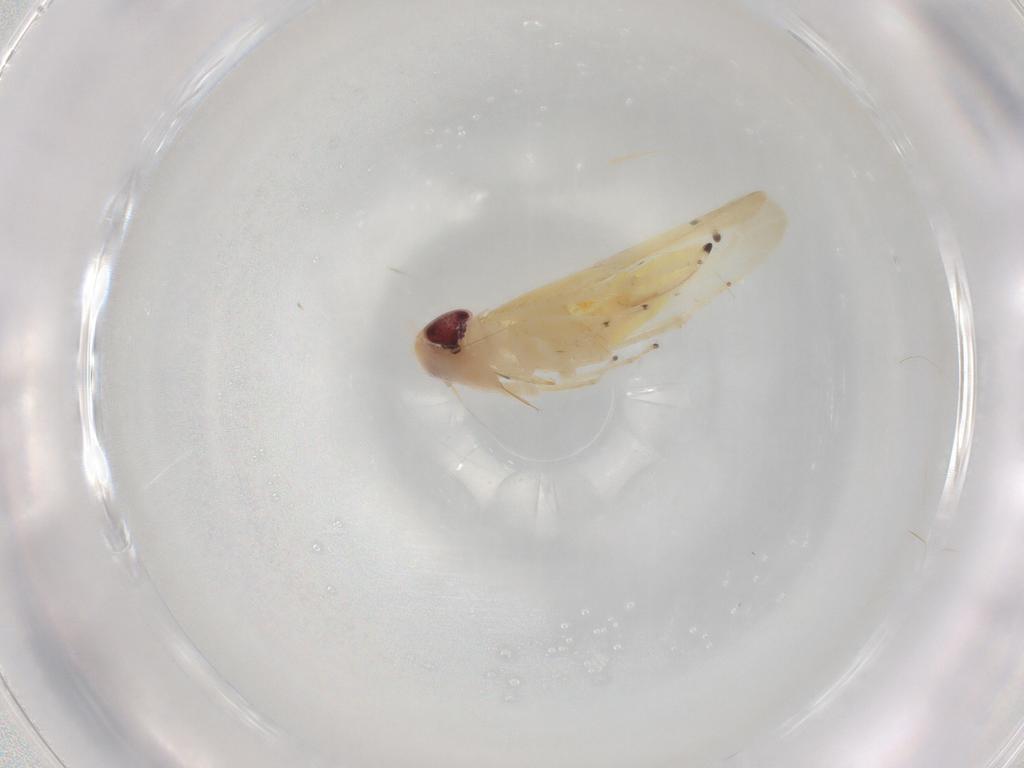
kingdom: Animalia
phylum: Arthropoda
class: Insecta
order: Hemiptera
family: Cicadellidae
